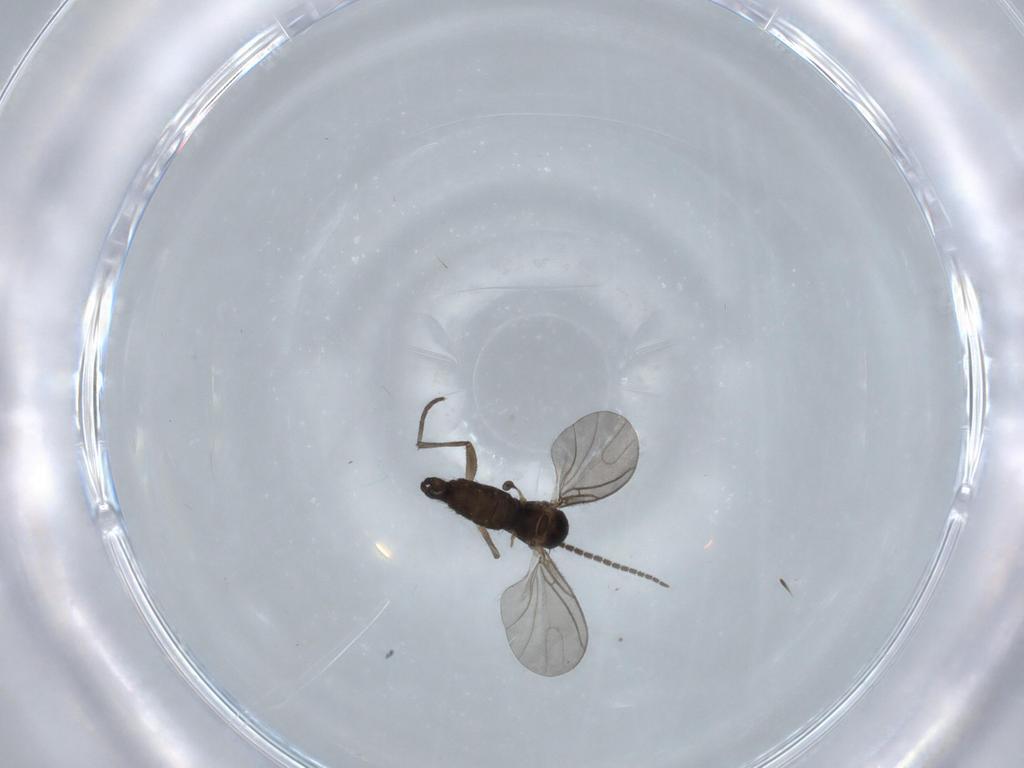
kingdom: Animalia
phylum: Arthropoda
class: Insecta
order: Diptera
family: Sciaridae
